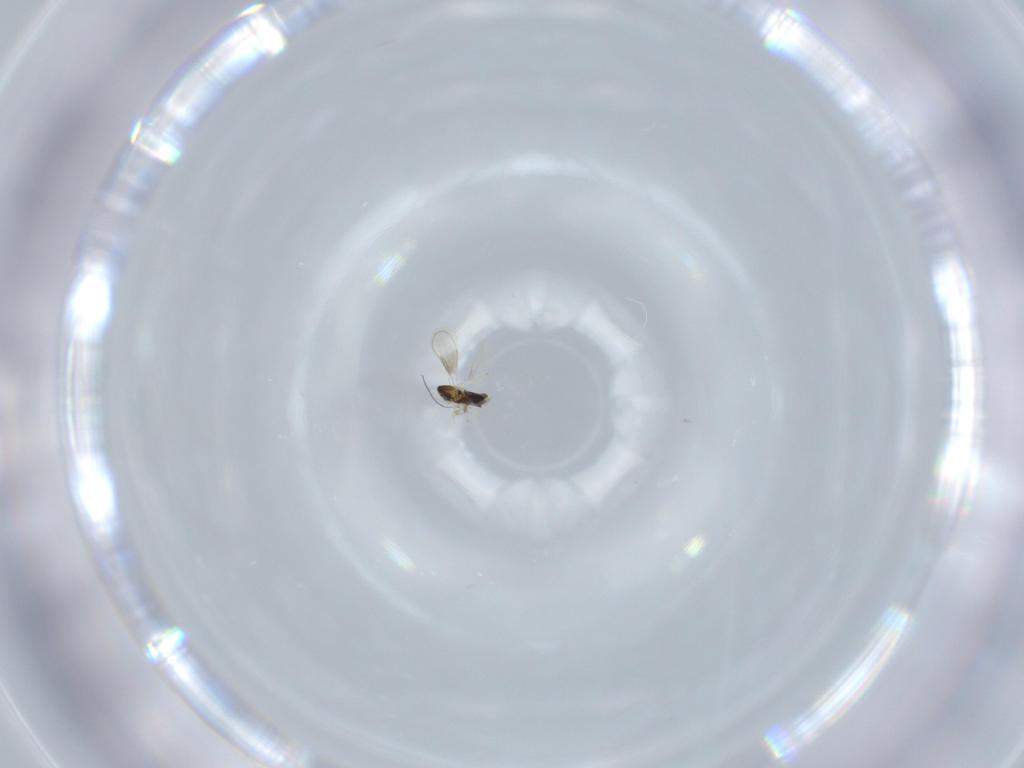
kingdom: Animalia
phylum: Arthropoda
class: Insecta
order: Hymenoptera
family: Aphelinidae
